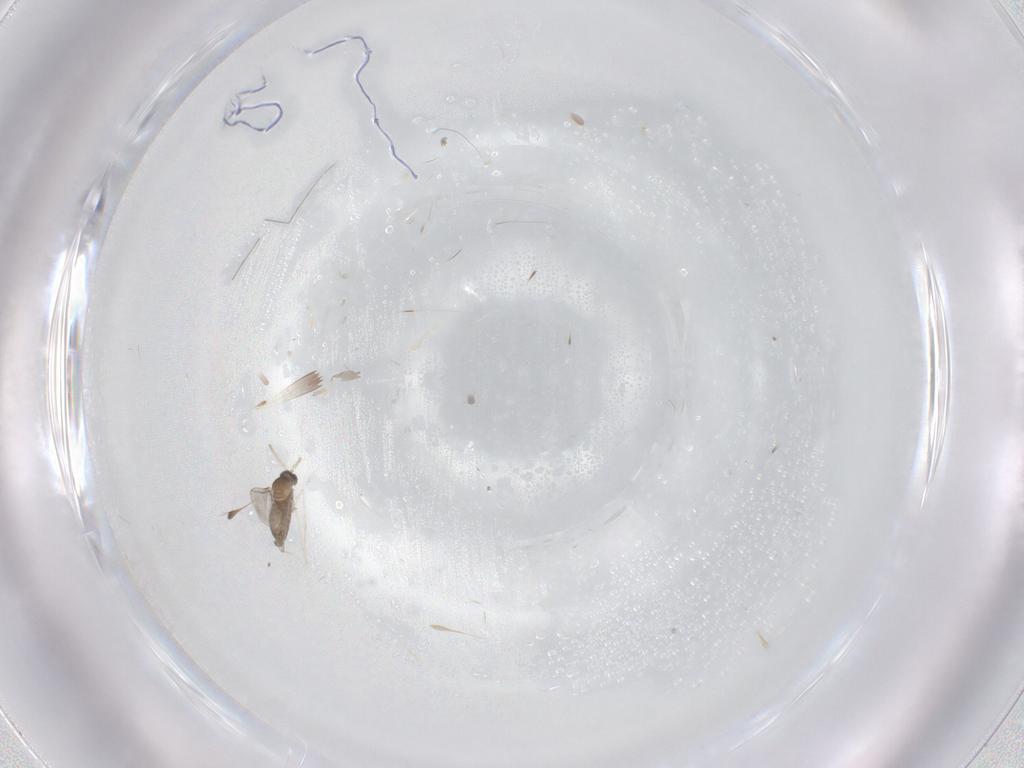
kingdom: Animalia
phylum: Arthropoda
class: Insecta
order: Diptera
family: Cecidomyiidae
